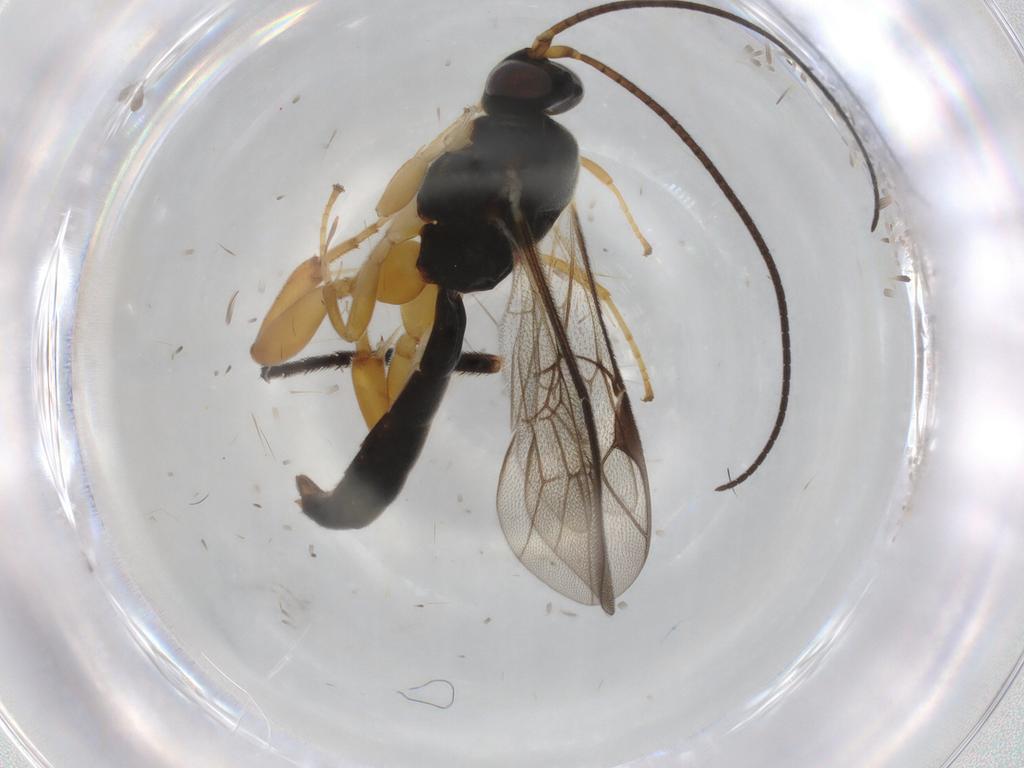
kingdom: Animalia
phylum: Arthropoda
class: Insecta
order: Hymenoptera
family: Ichneumonidae
